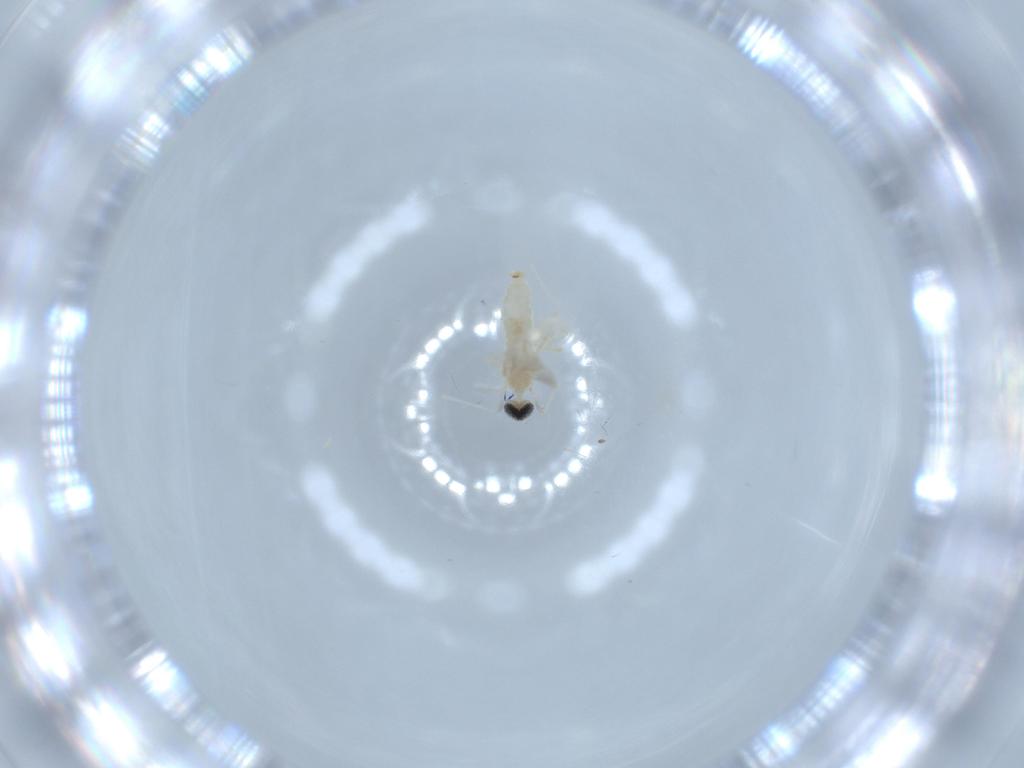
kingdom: Animalia
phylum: Arthropoda
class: Insecta
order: Diptera
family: Cecidomyiidae
